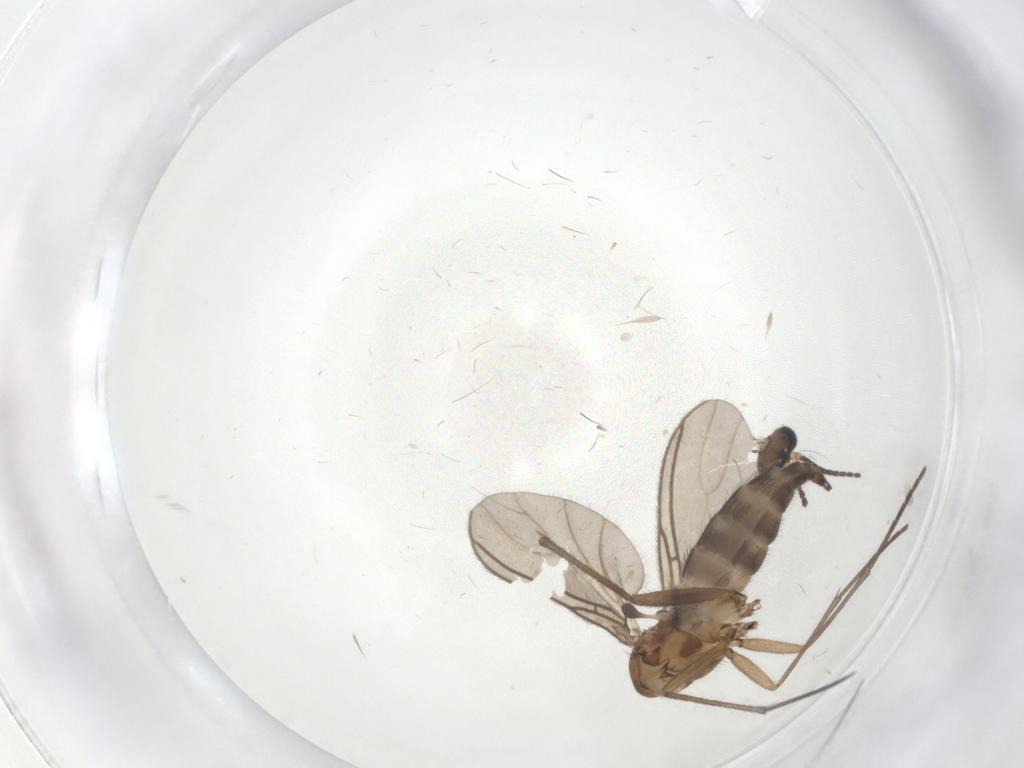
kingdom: Animalia
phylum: Arthropoda
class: Insecta
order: Diptera
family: Sciaridae
